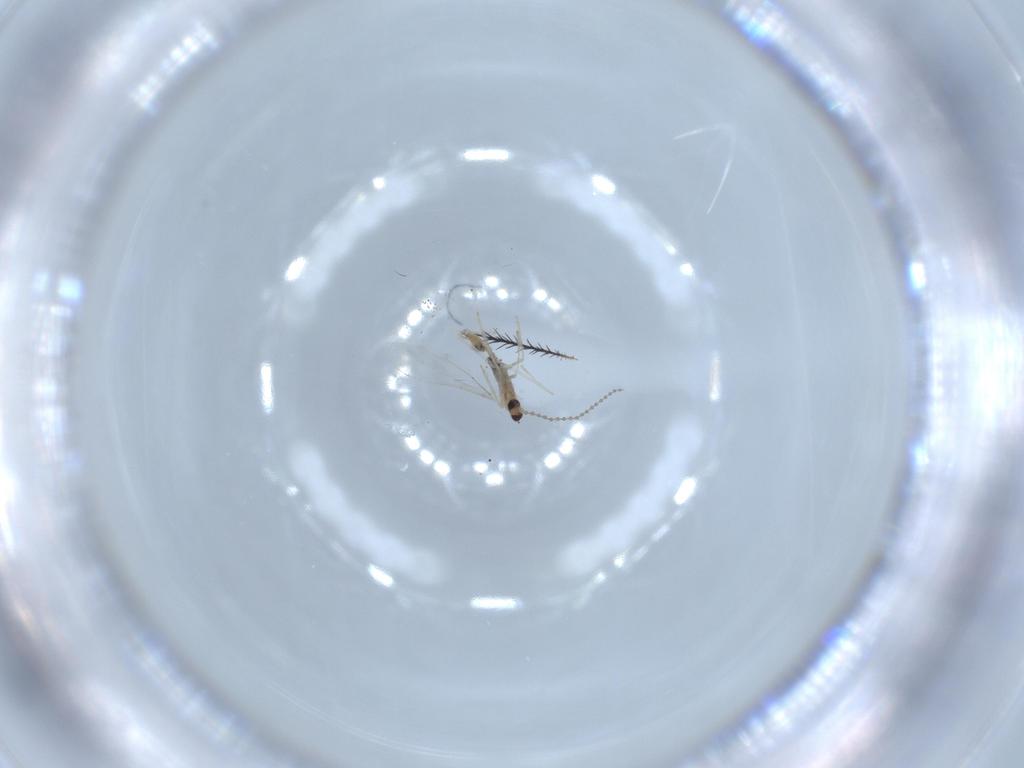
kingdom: Animalia
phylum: Arthropoda
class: Insecta
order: Diptera
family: Cecidomyiidae
